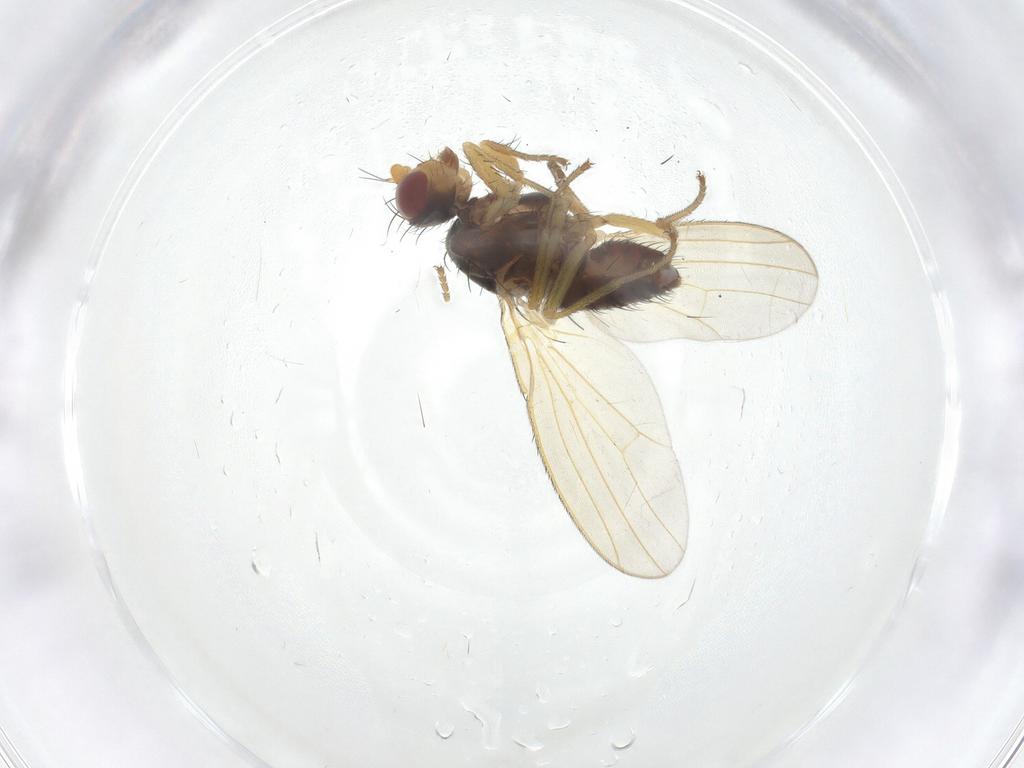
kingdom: Animalia
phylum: Arthropoda
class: Insecta
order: Diptera
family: Heleomyzidae
